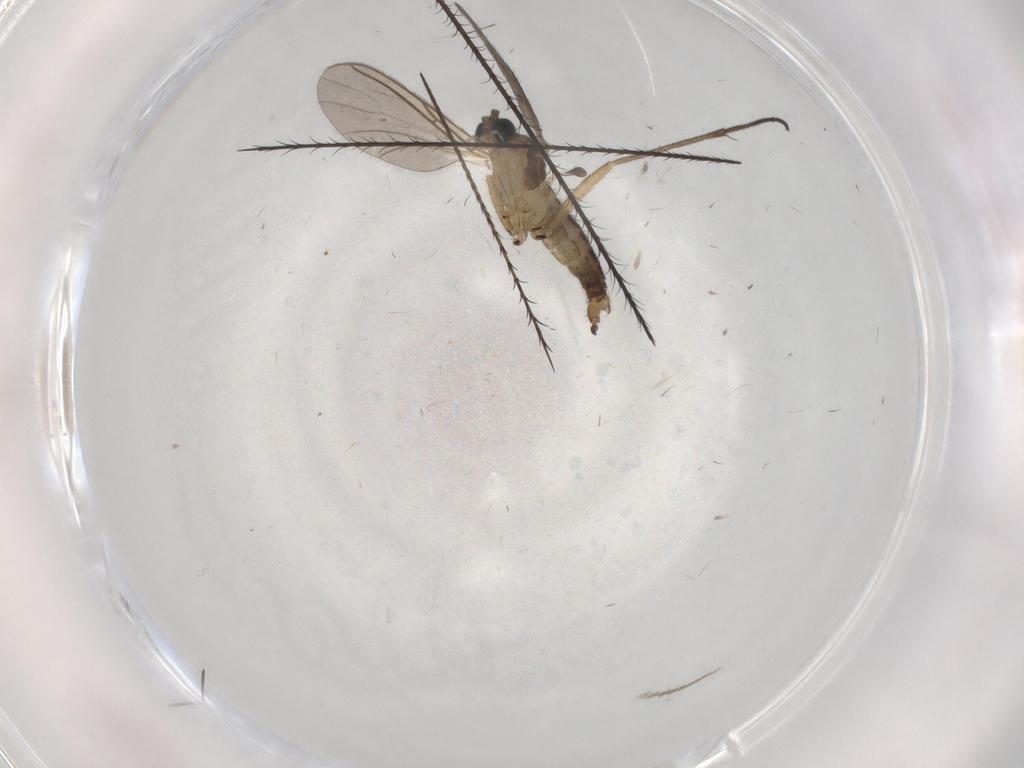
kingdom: Animalia
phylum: Arthropoda
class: Insecta
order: Diptera
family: Limoniidae
